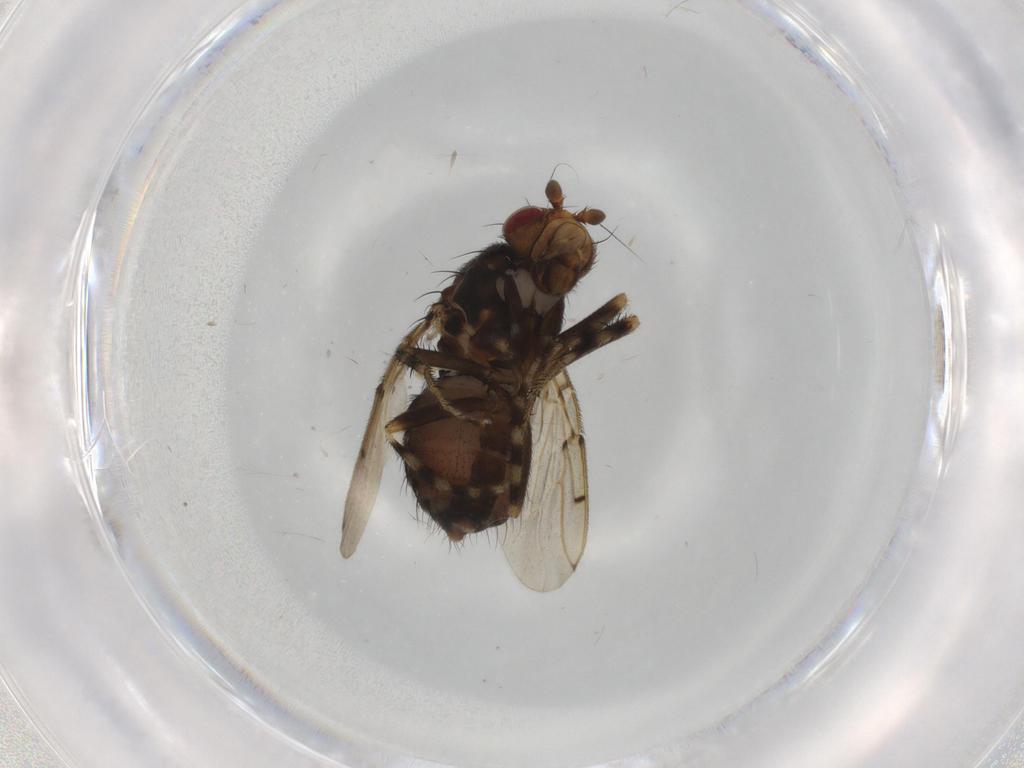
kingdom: Animalia
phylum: Arthropoda
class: Insecta
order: Diptera
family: Sphaeroceridae
